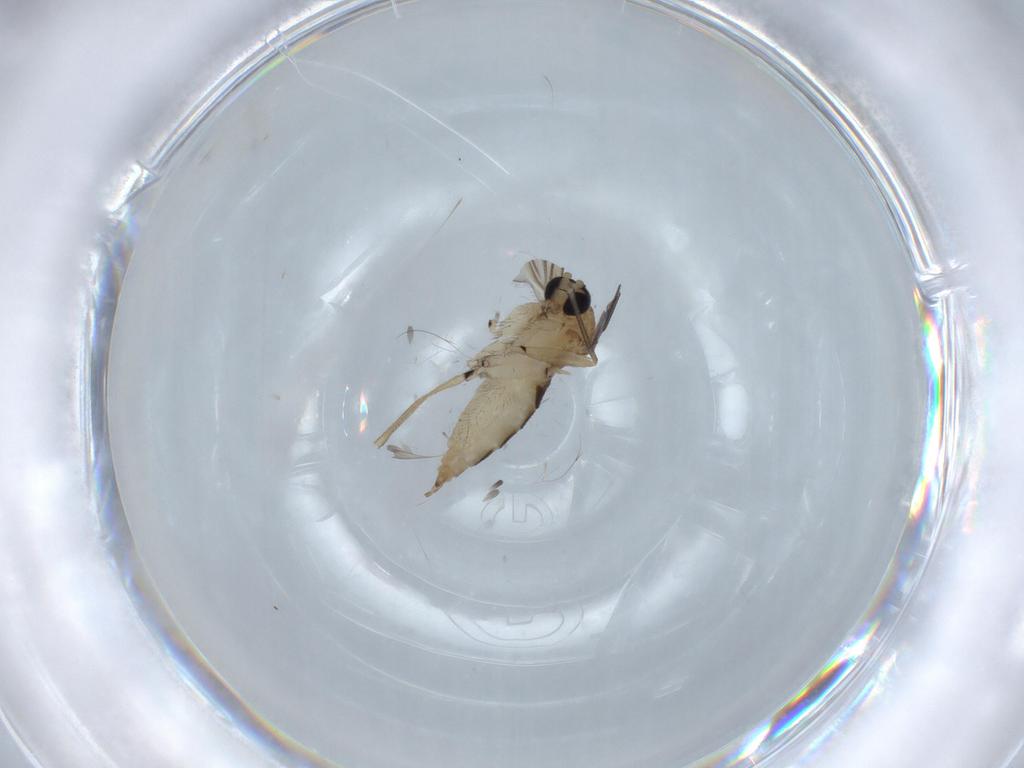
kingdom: Animalia
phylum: Arthropoda
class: Insecta
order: Diptera
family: Sciaridae
